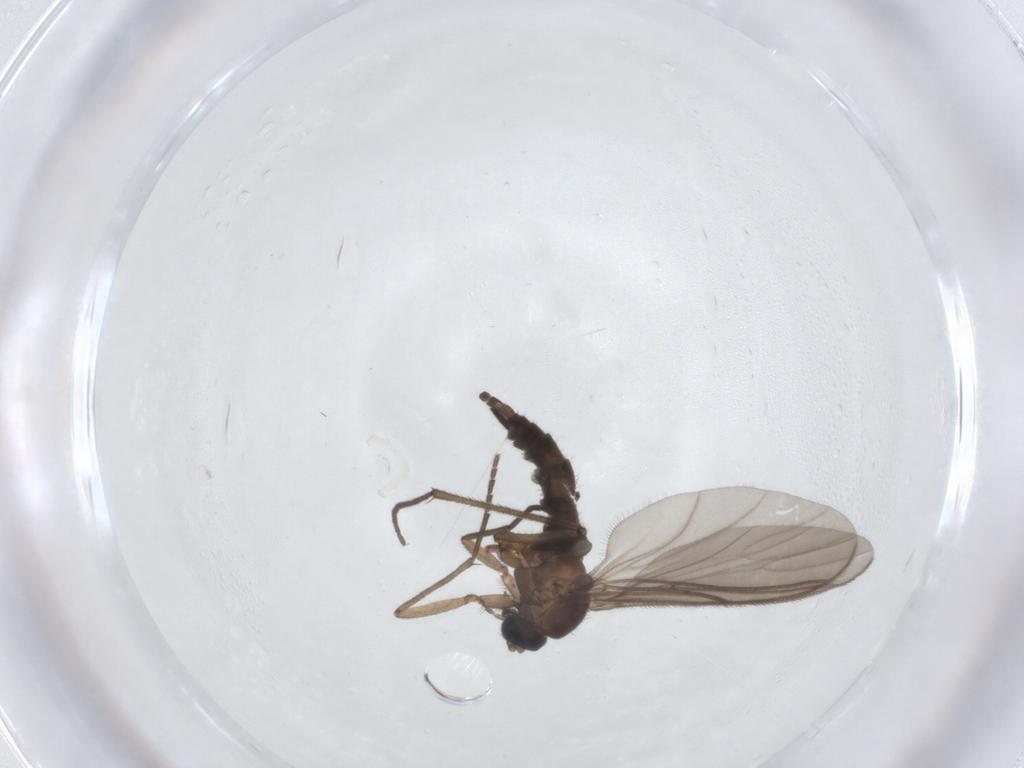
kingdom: Animalia
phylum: Arthropoda
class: Insecta
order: Diptera
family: Sciaridae
